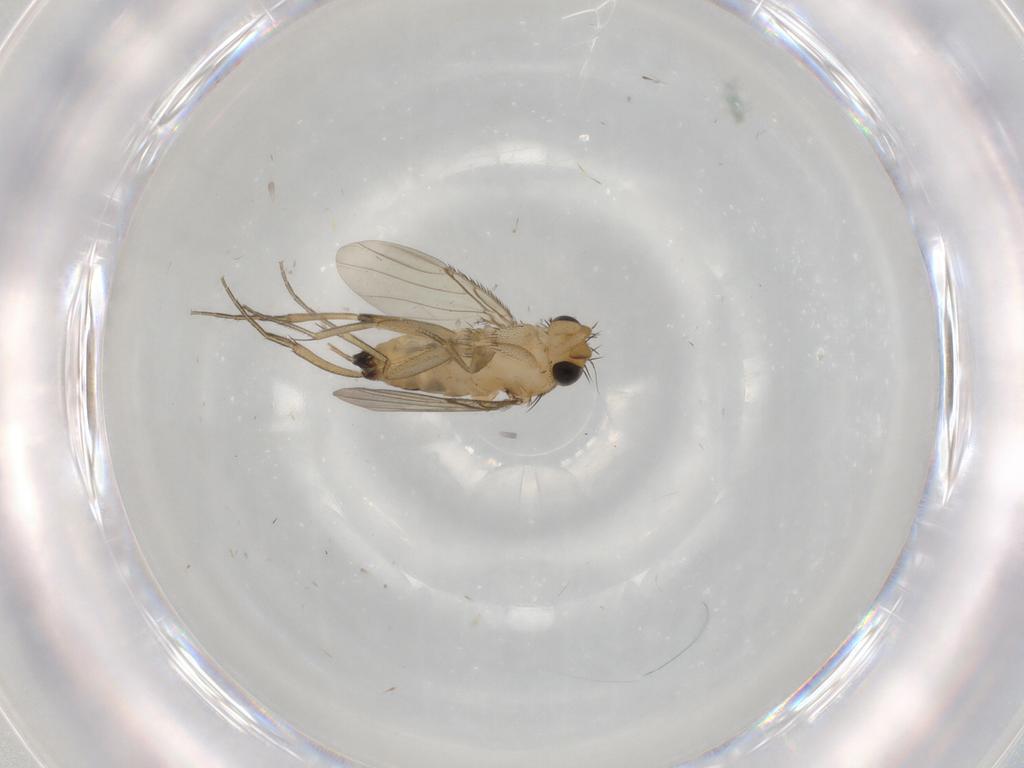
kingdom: Animalia
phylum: Arthropoda
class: Insecta
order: Diptera
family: Phoridae
